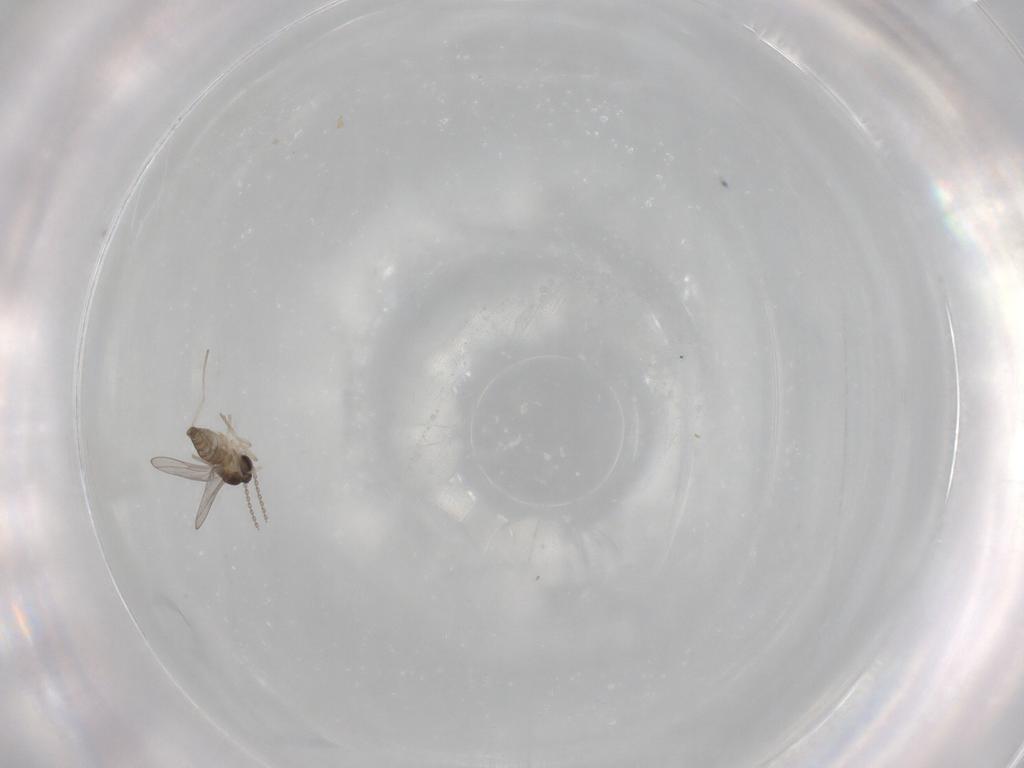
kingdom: Animalia
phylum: Arthropoda
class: Insecta
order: Diptera
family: Cecidomyiidae
